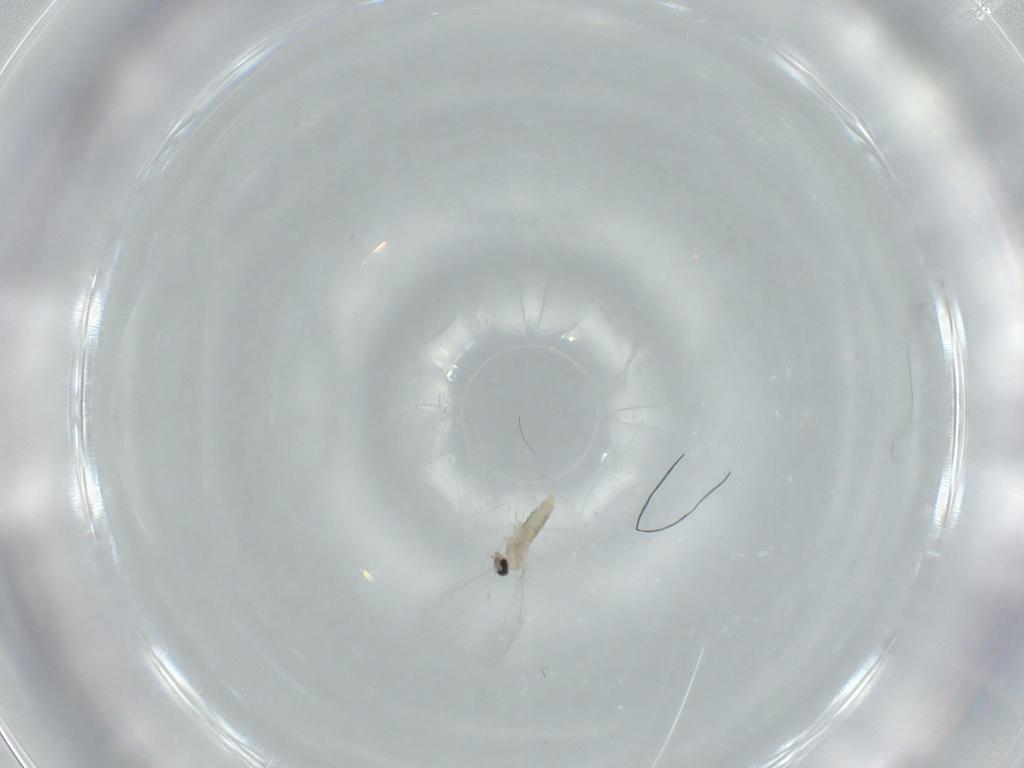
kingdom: Animalia
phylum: Arthropoda
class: Insecta
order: Diptera
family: Cecidomyiidae
